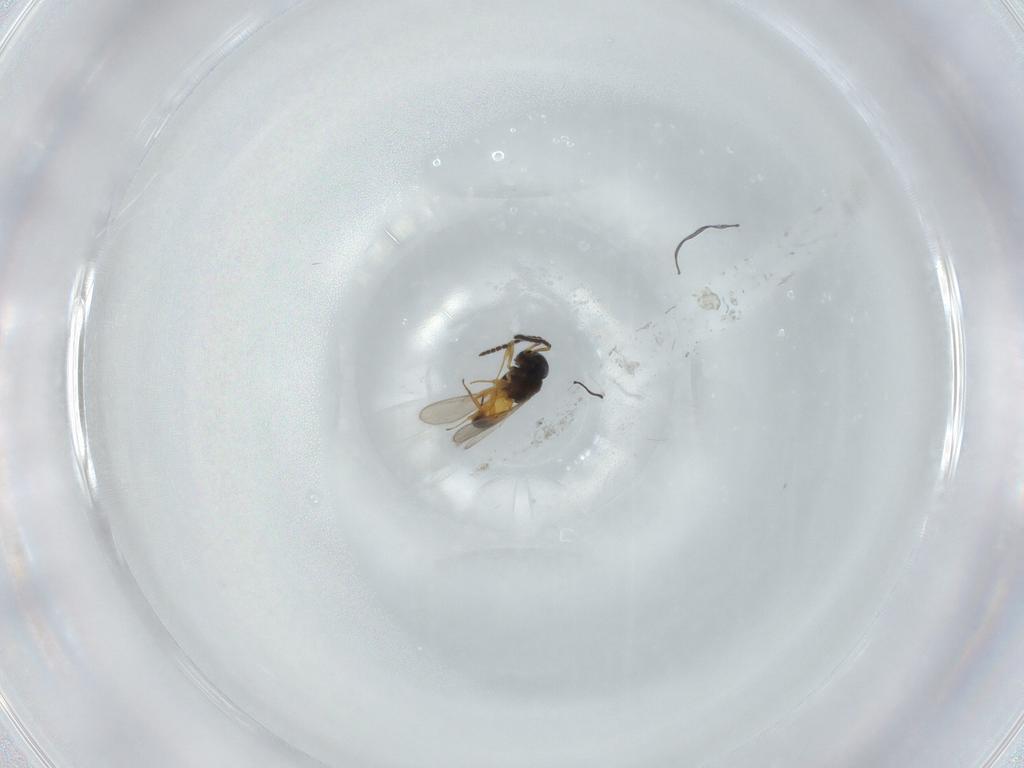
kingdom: Animalia
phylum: Arthropoda
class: Insecta
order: Hymenoptera
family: Scelionidae
